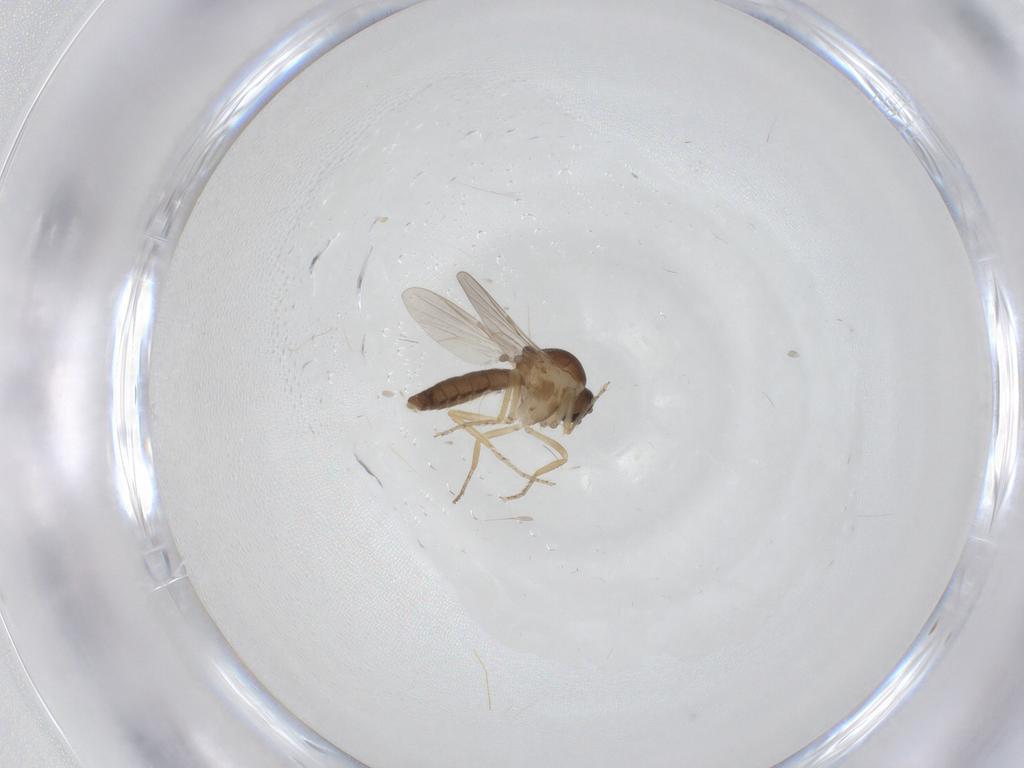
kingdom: Animalia
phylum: Arthropoda
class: Insecta
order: Diptera
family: Ceratopogonidae
